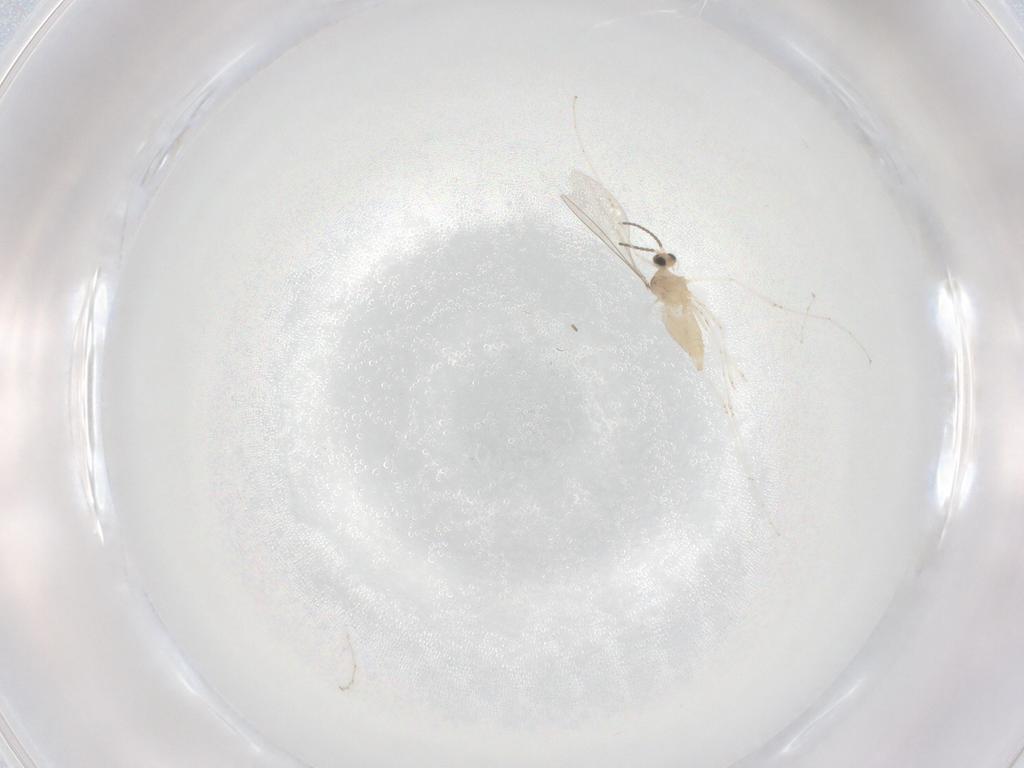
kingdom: Animalia
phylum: Arthropoda
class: Insecta
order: Diptera
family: Cecidomyiidae
